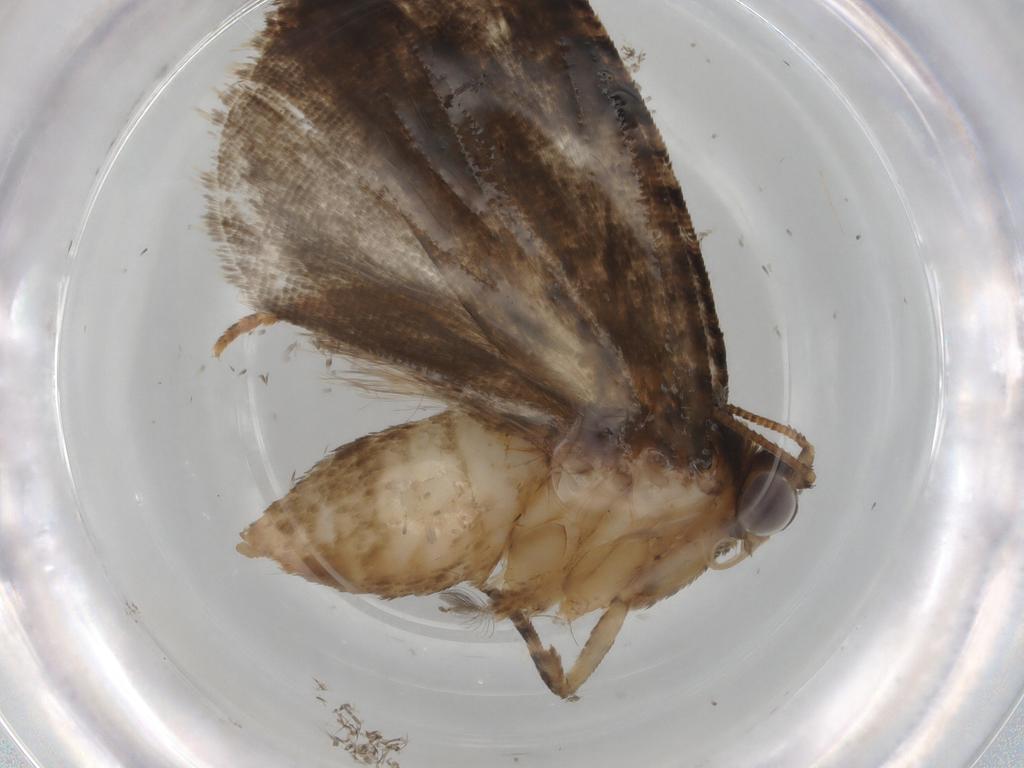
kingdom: Animalia
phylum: Arthropoda
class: Insecta
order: Lepidoptera
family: Tortricidae
